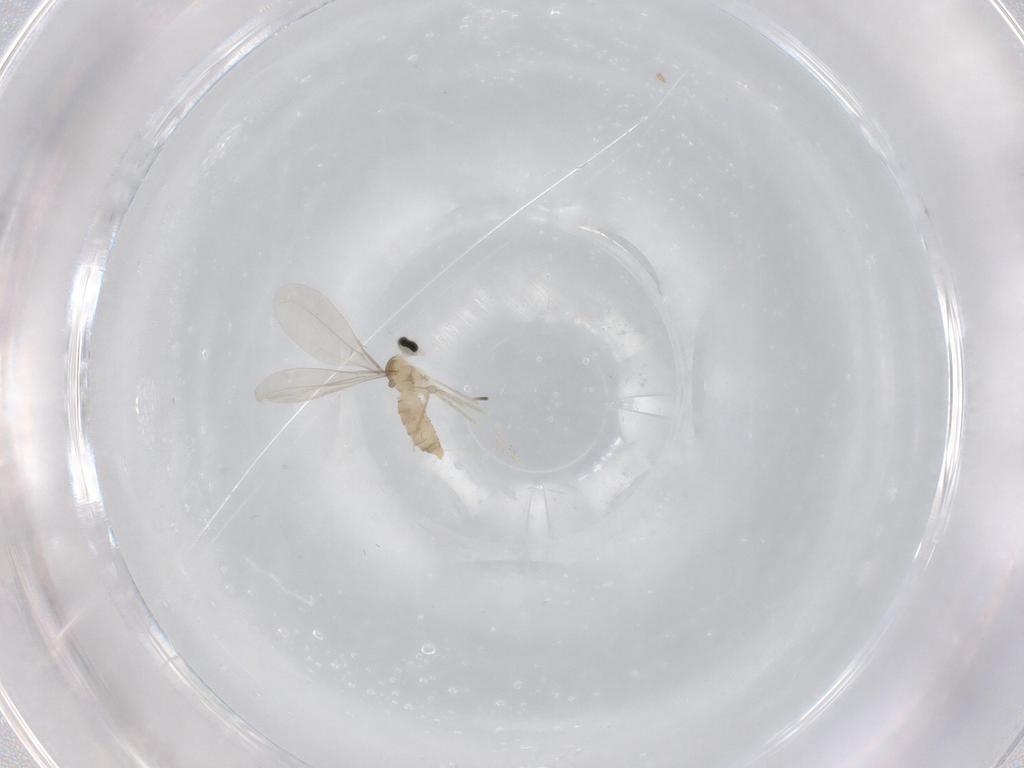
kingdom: Animalia
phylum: Arthropoda
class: Insecta
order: Diptera
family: Cecidomyiidae
